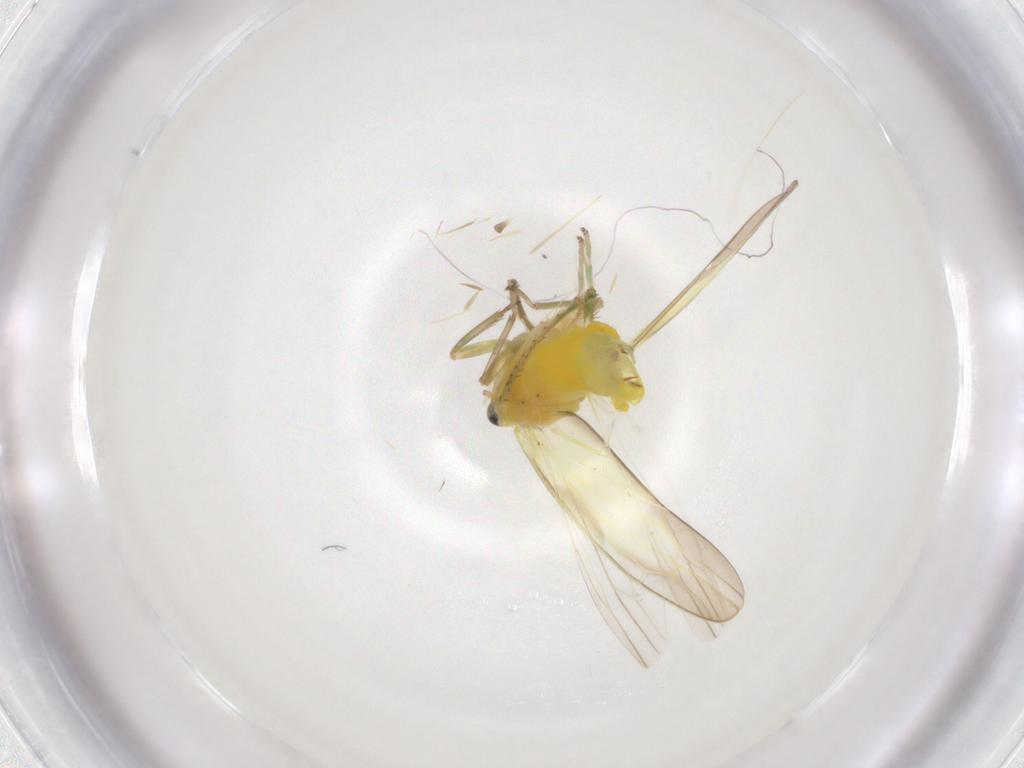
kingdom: Animalia
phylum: Arthropoda
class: Insecta
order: Hemiptera
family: Cicadellidae
